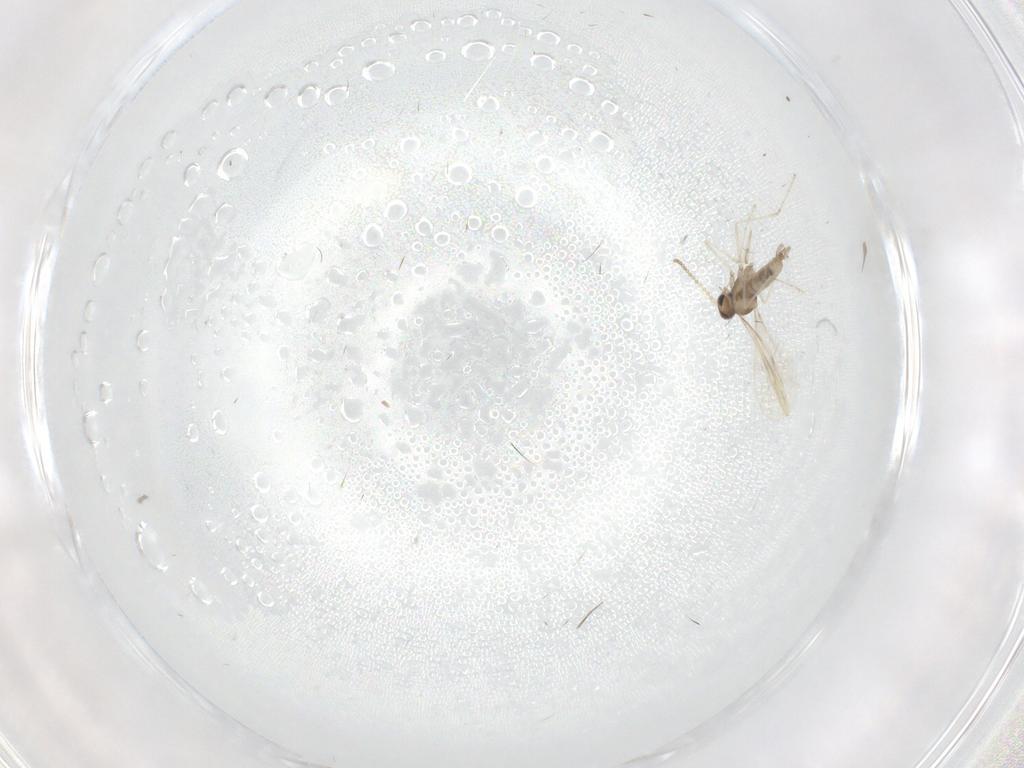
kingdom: Animalia
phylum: Arthropoda
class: Insecta
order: Diptera
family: Cecidomyiidae
